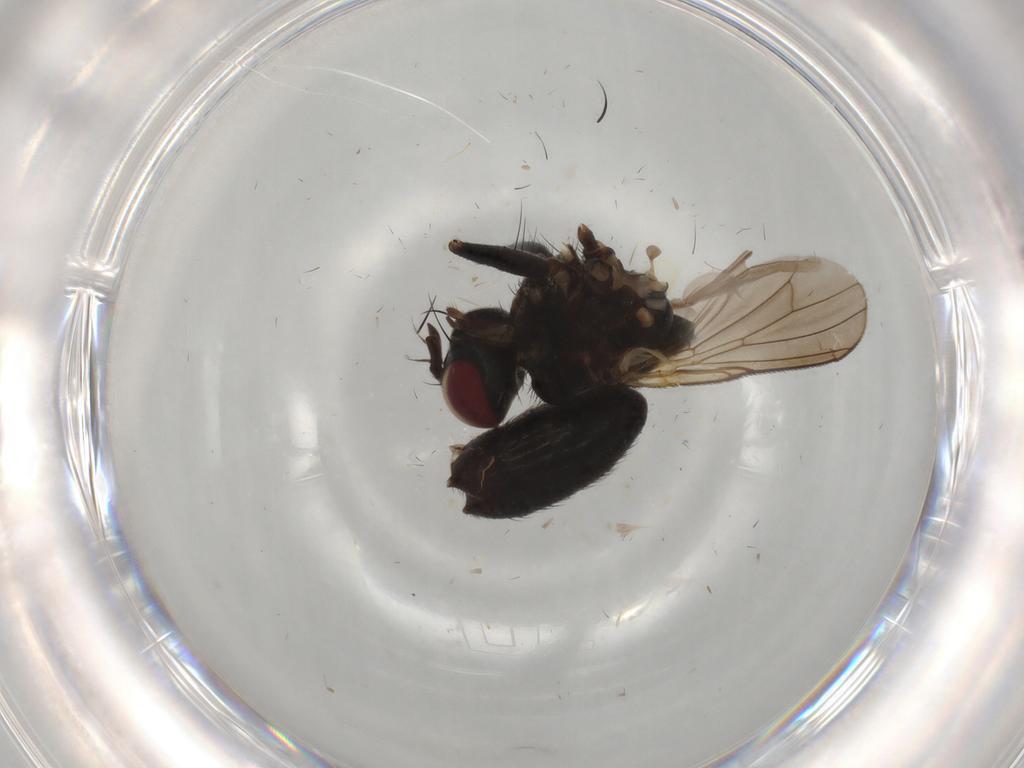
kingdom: Animalia
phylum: Arthropoda
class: Insecta
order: Diptera
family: Muscidae
